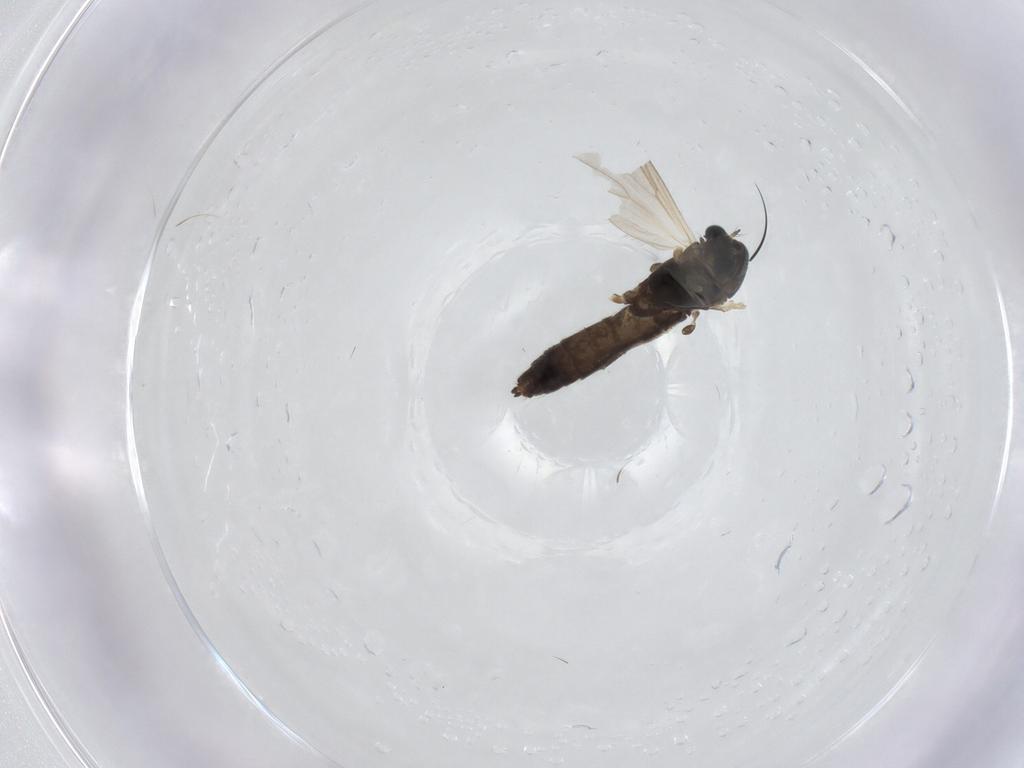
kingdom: Animalia
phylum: Arthropoda
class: Insecta
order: Diptera
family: Chironomidae
